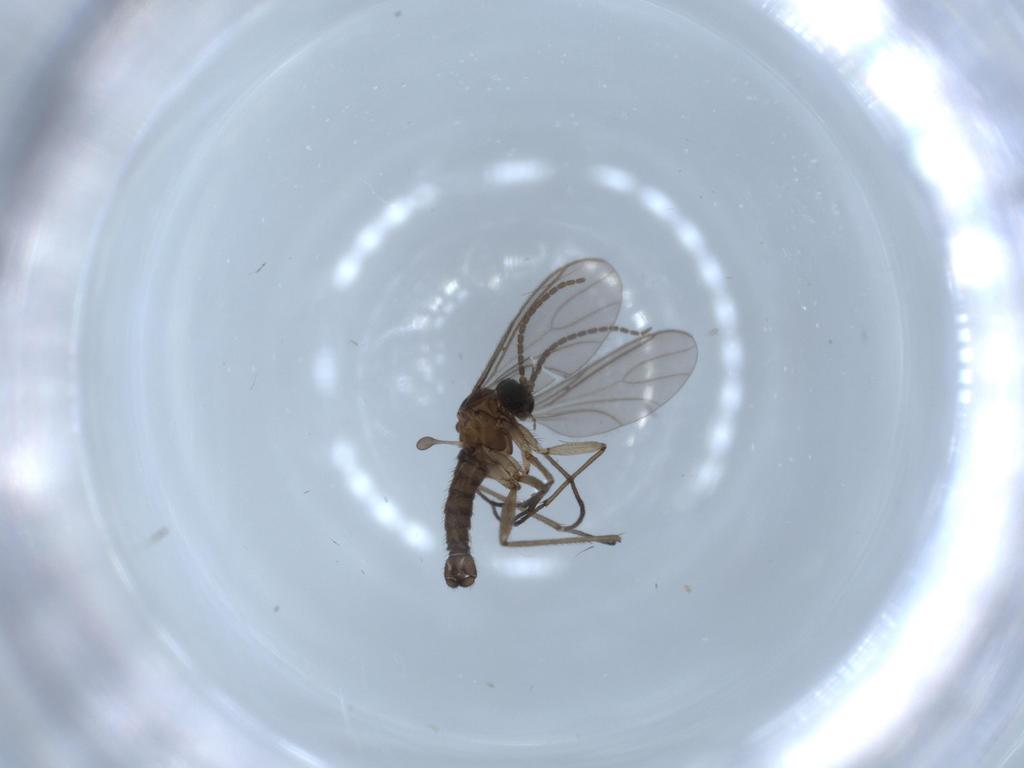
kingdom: Animalia
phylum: Arthropoda
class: Insecta
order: Diptera
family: Sciaridae
